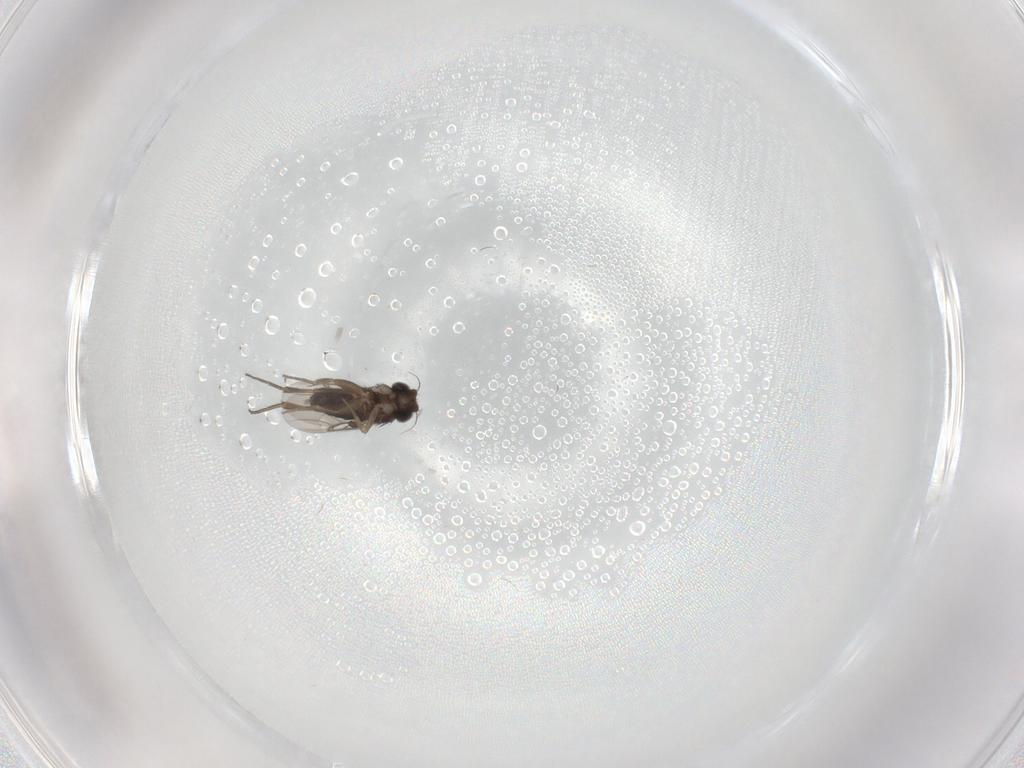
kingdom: Animalia
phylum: Arthropoda
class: Insecta
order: Diptera
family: Phoridae
